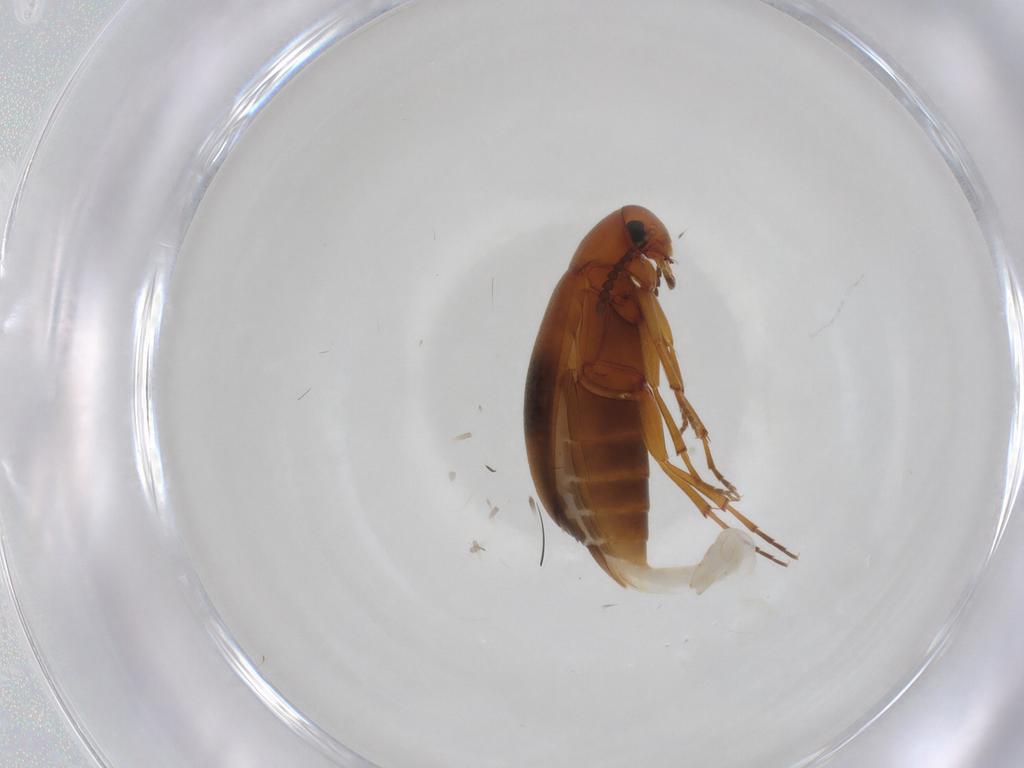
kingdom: Animalia
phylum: Arthropoda
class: Insecta
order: Coleoptera
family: Scraptiidae
